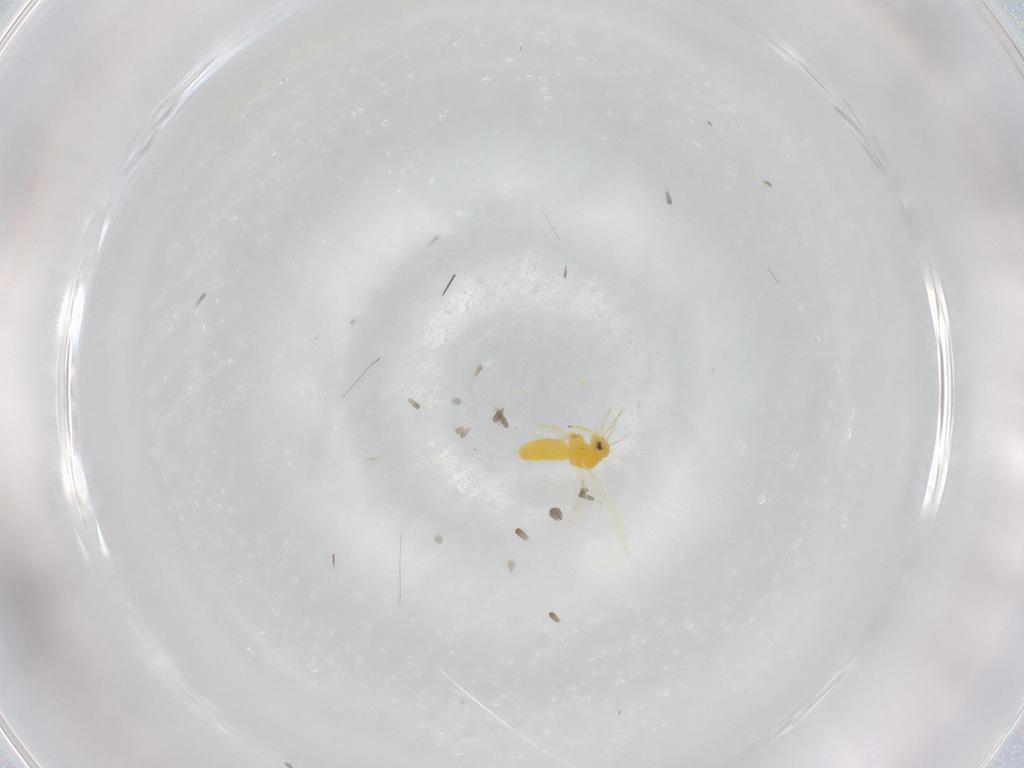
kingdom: Animalia
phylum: Arthropoda
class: Insecta
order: Hemiptera
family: Aleyrodidae
